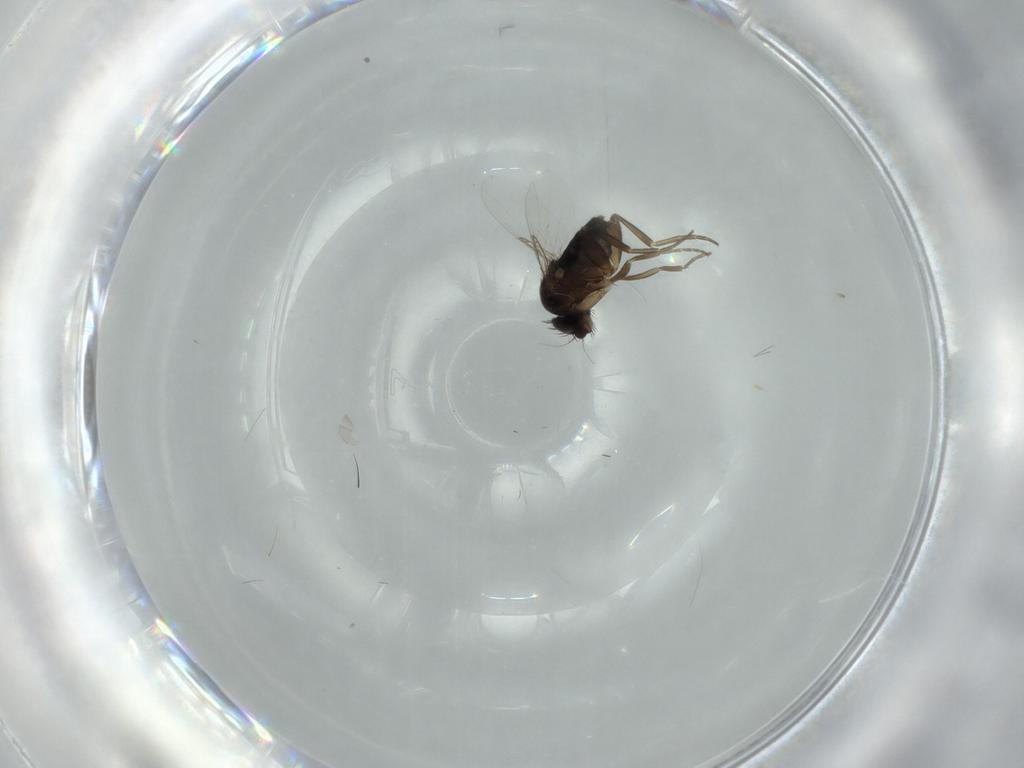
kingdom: Animalia
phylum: Arthropoda
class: Insecta
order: Diptera
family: Phoridae
